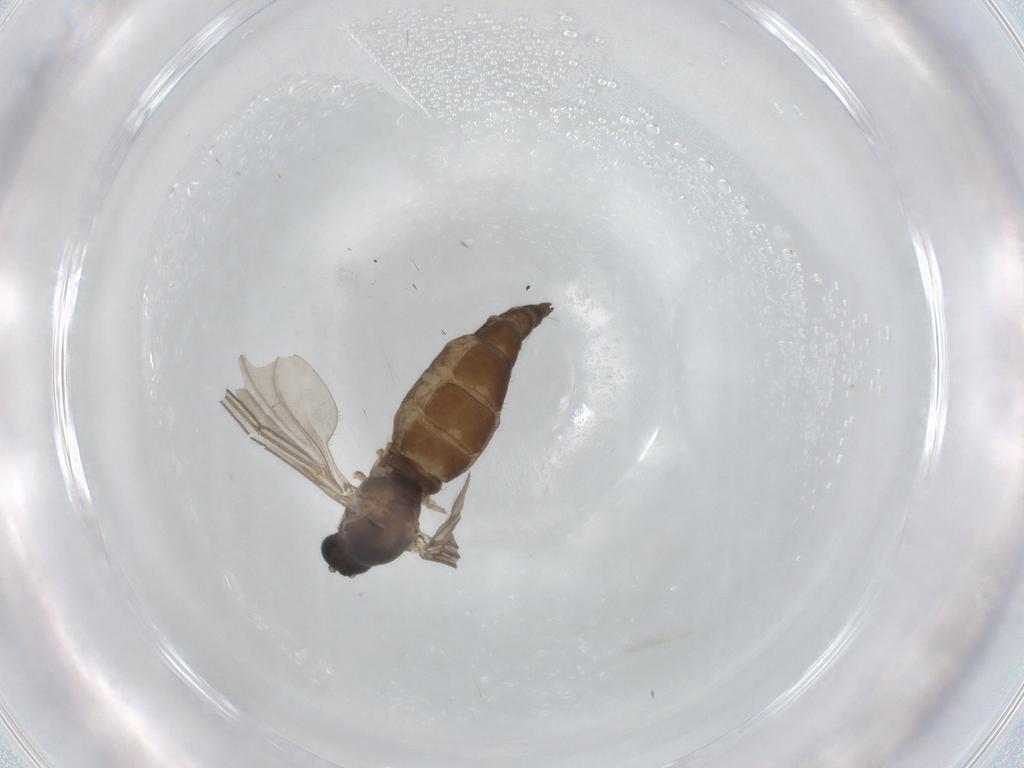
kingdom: Animalia
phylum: Arthropoda
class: Insecta
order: Diptera
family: Sciaridae
